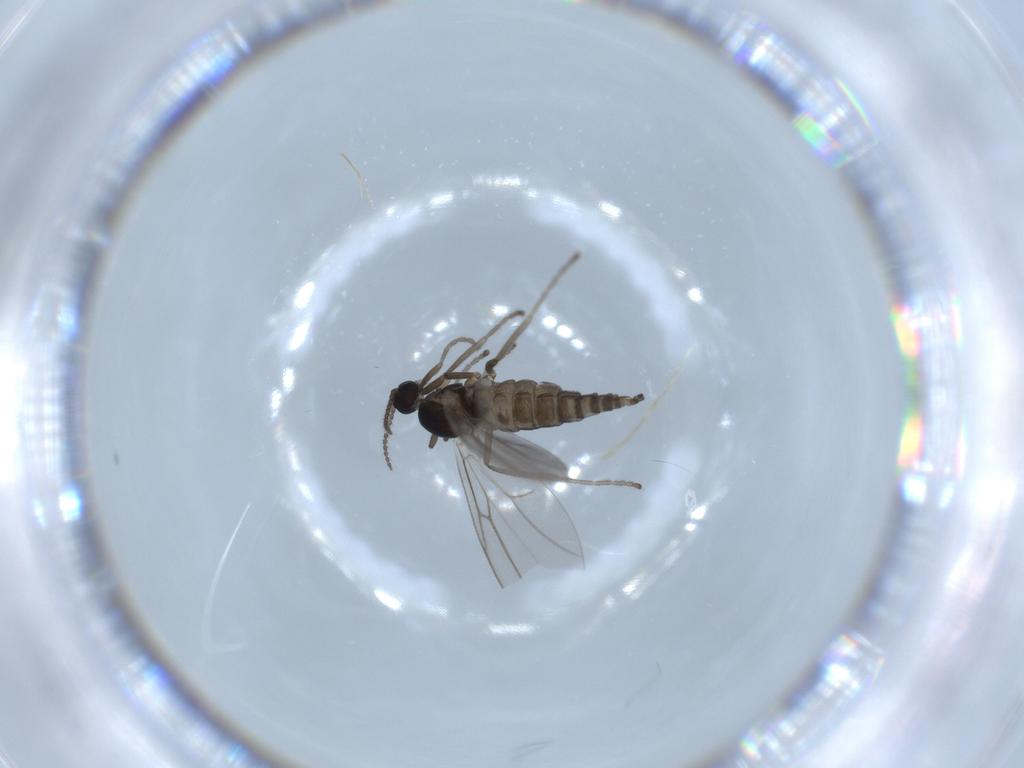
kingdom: Animalia
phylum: Arthropoda
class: Insecta
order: Diptera
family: Cecidomyiidae
